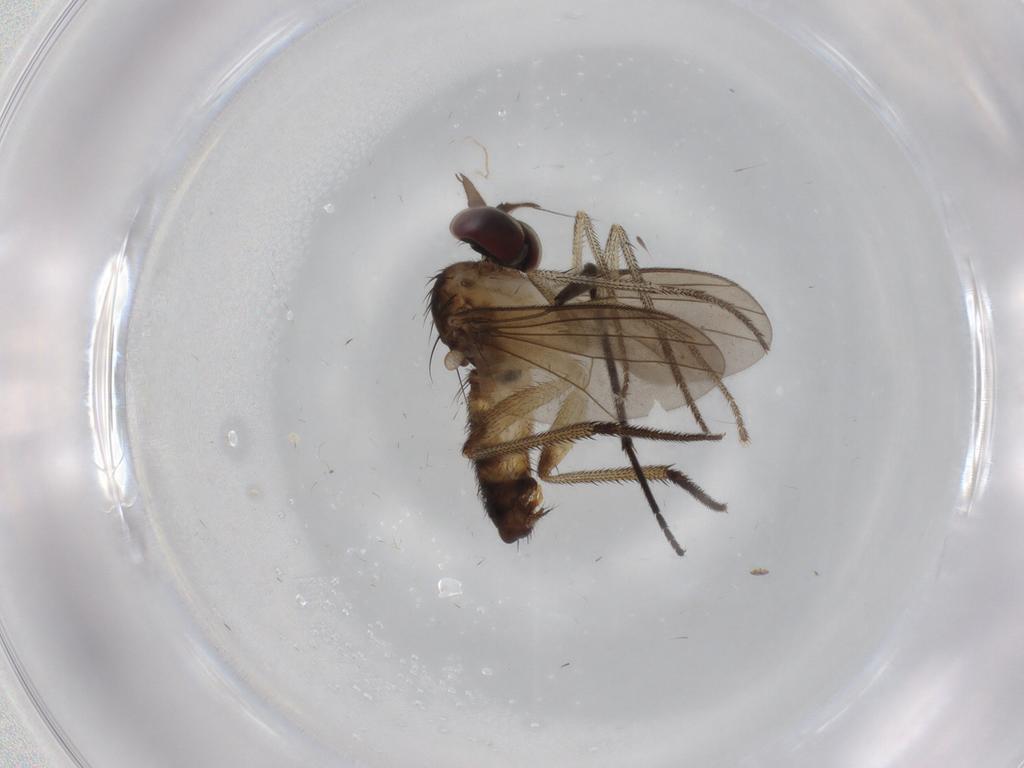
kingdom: Animalia
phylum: Arthropoda
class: Insecta
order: Diptera
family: Dolichopodidae
